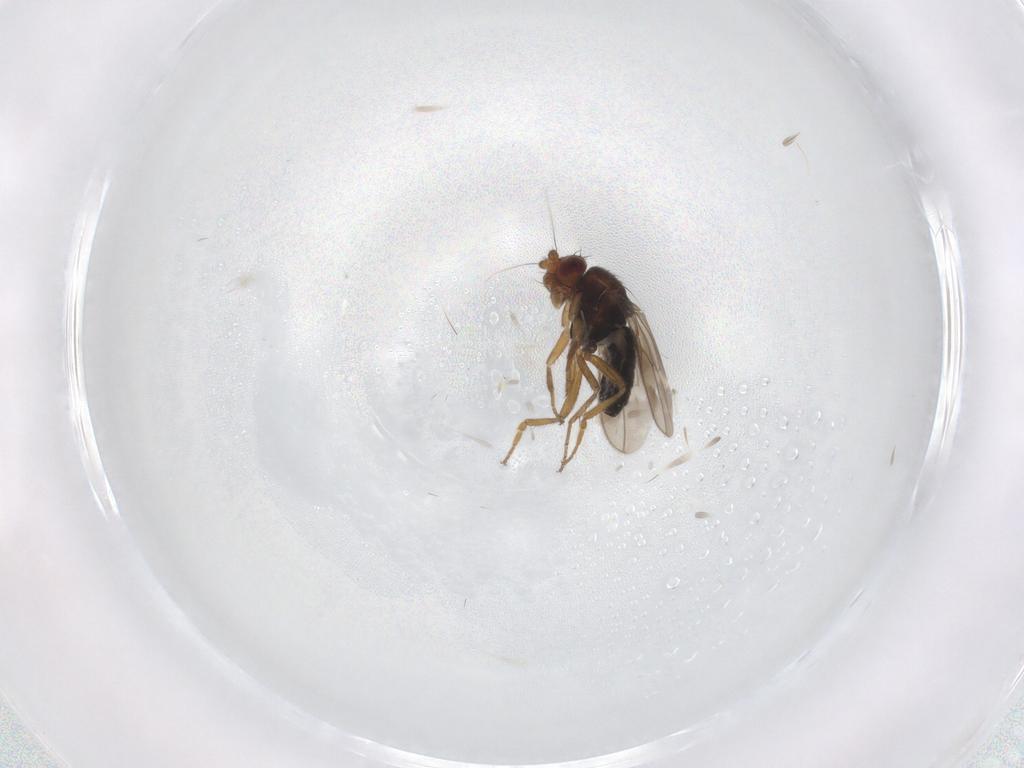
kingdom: Animalia
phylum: Arthropoda
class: Insecta
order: Diptera
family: Sphaeroceridae
